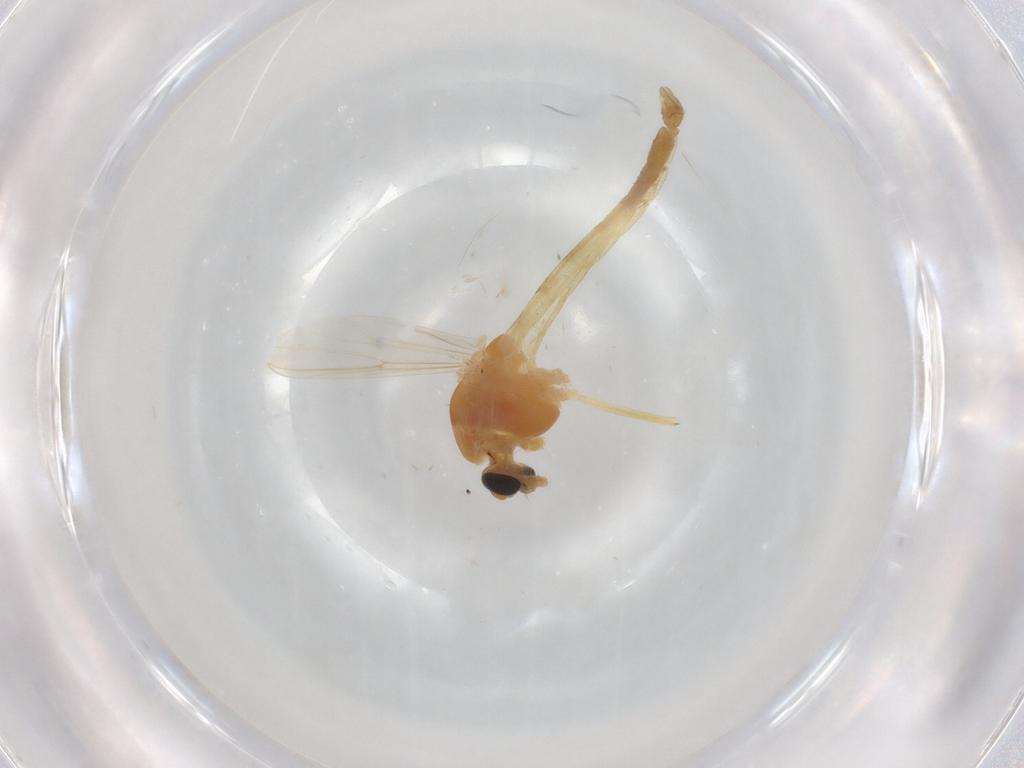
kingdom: Animalia
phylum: Arthropoda
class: Insecta
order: Diptera
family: Chironomidae
